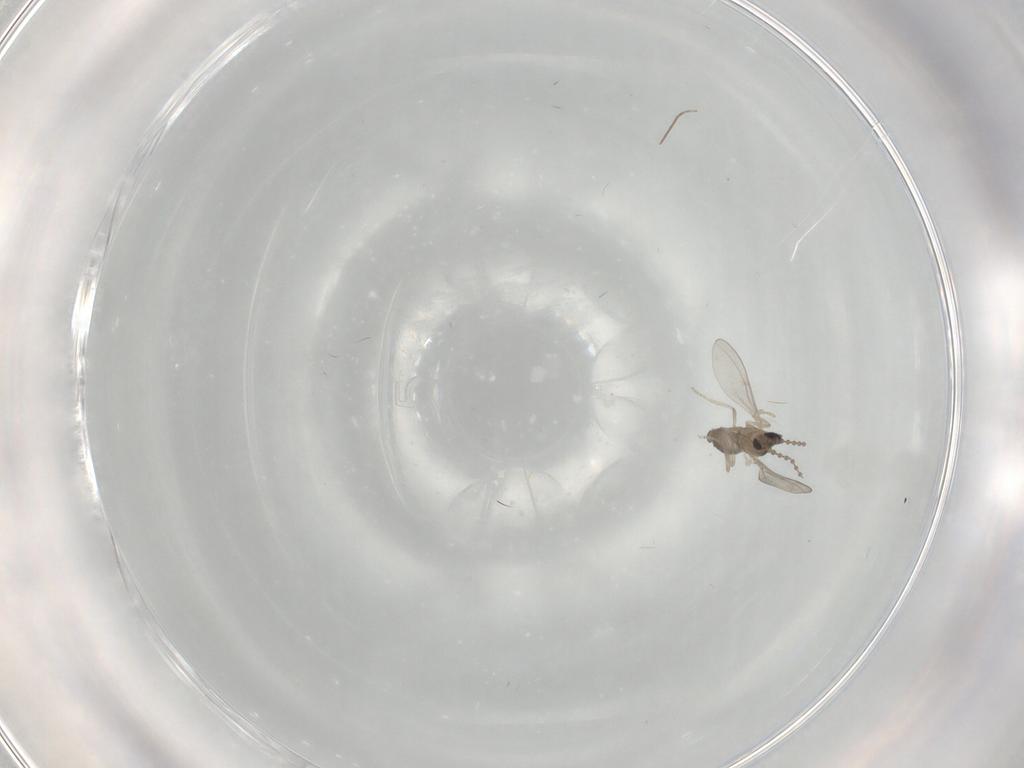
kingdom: Animalia
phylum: Arthropoda
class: Insecta
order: Diptera
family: Cecidomyiidae
